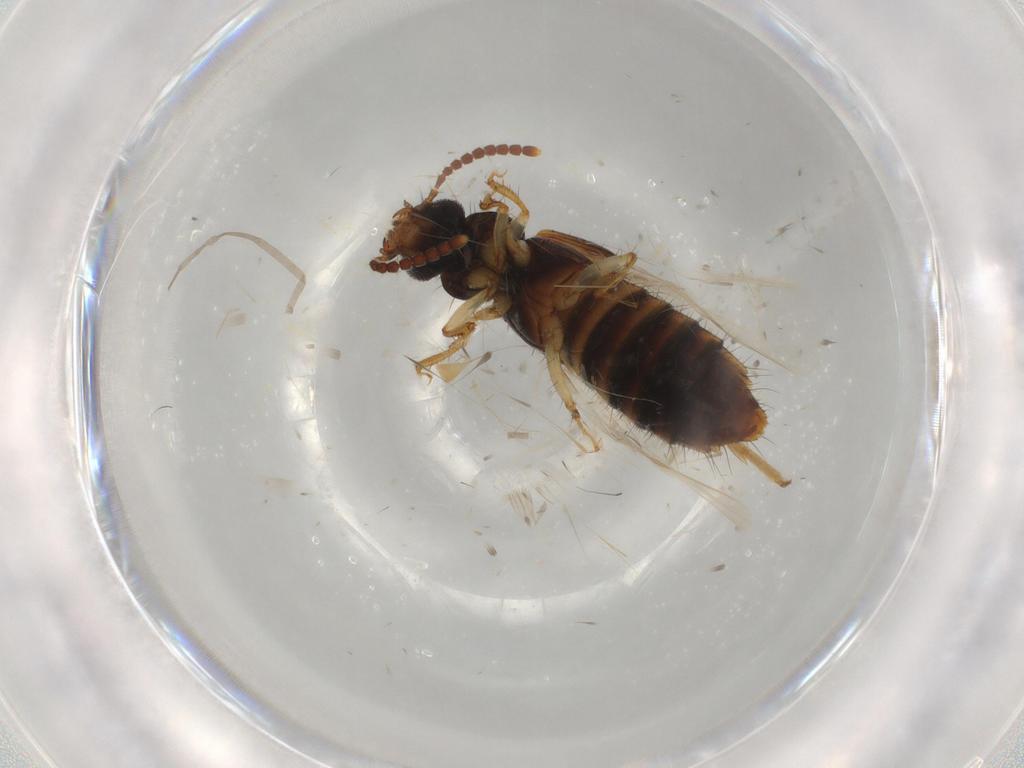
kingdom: Animalia
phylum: Arthropoda
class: Insecta
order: Coleoptera
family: Staphylinidae
